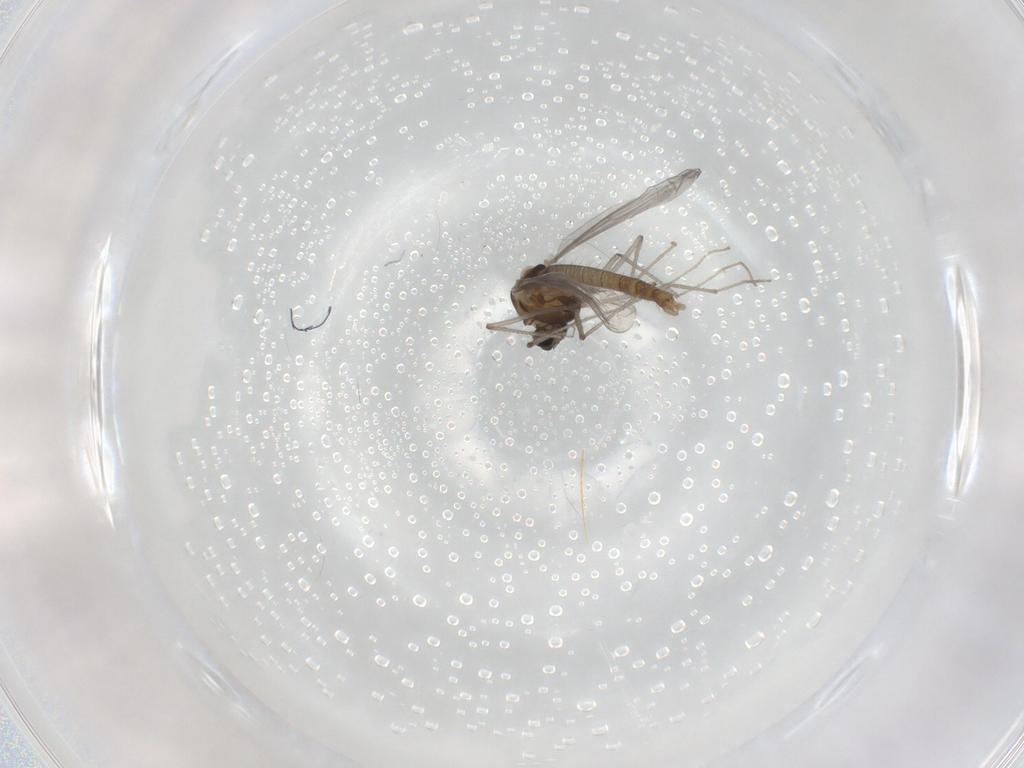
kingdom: Animalia
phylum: Arthropoda
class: Insecta
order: Diptera
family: Chironomidae
